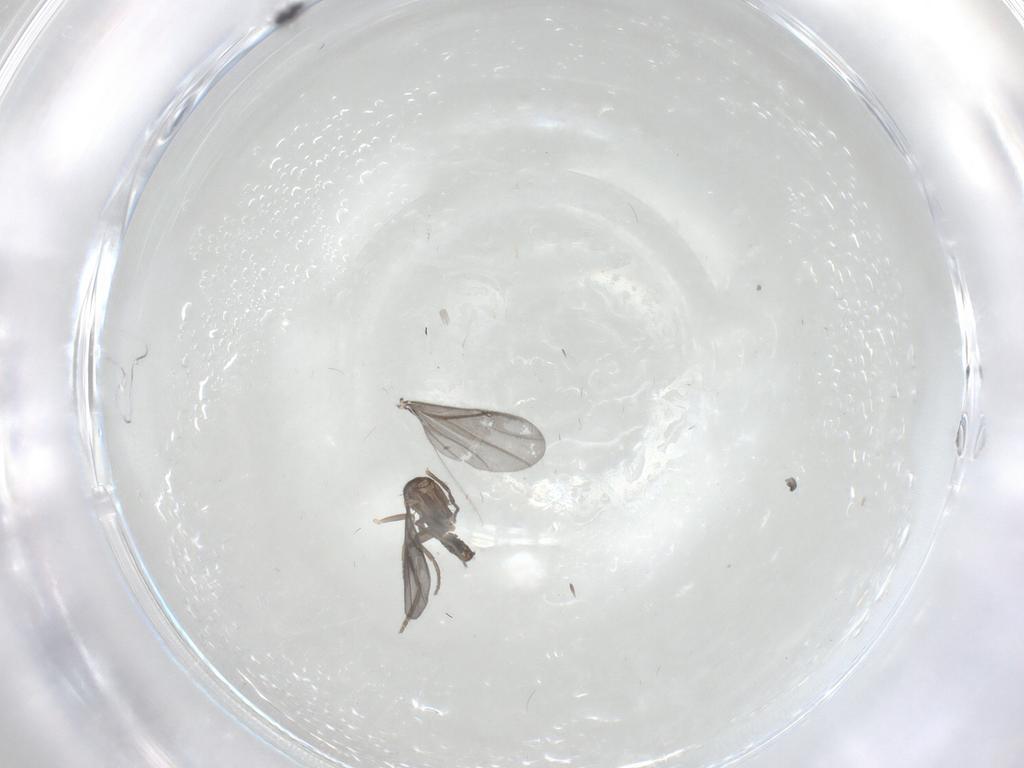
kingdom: Animalia
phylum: Arthropoda
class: Insecta
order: Diptera
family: Phoridae
